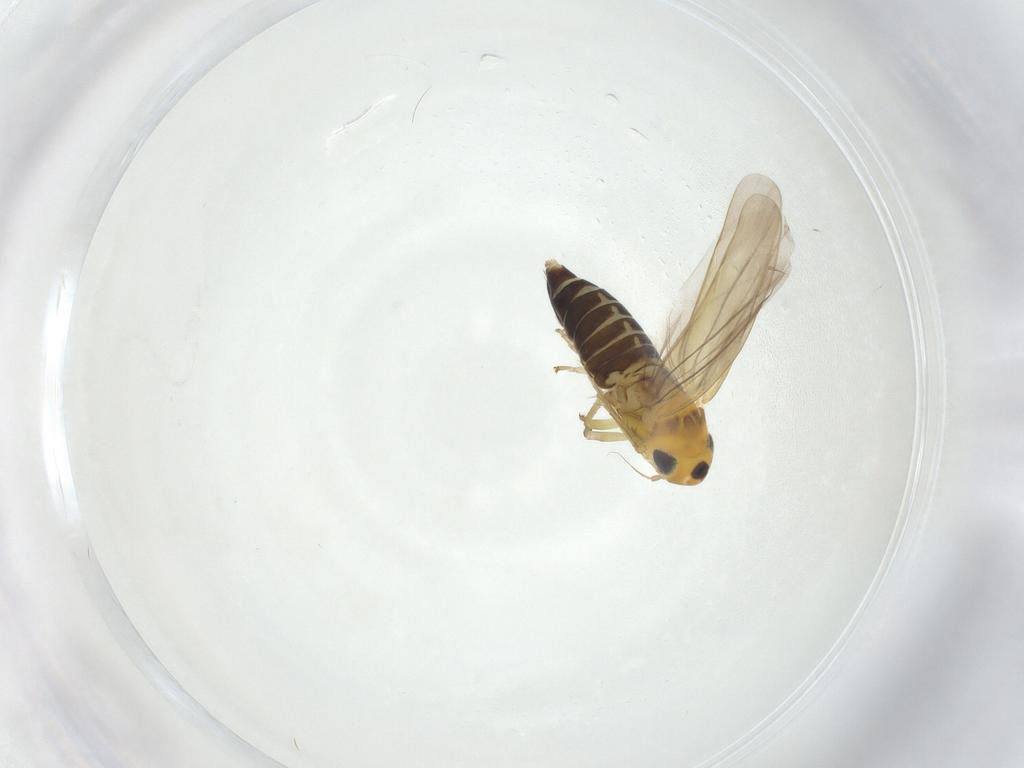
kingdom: Animalia
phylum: Arthropoda
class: Insecta
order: Hemiptera
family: Cicadellidae
